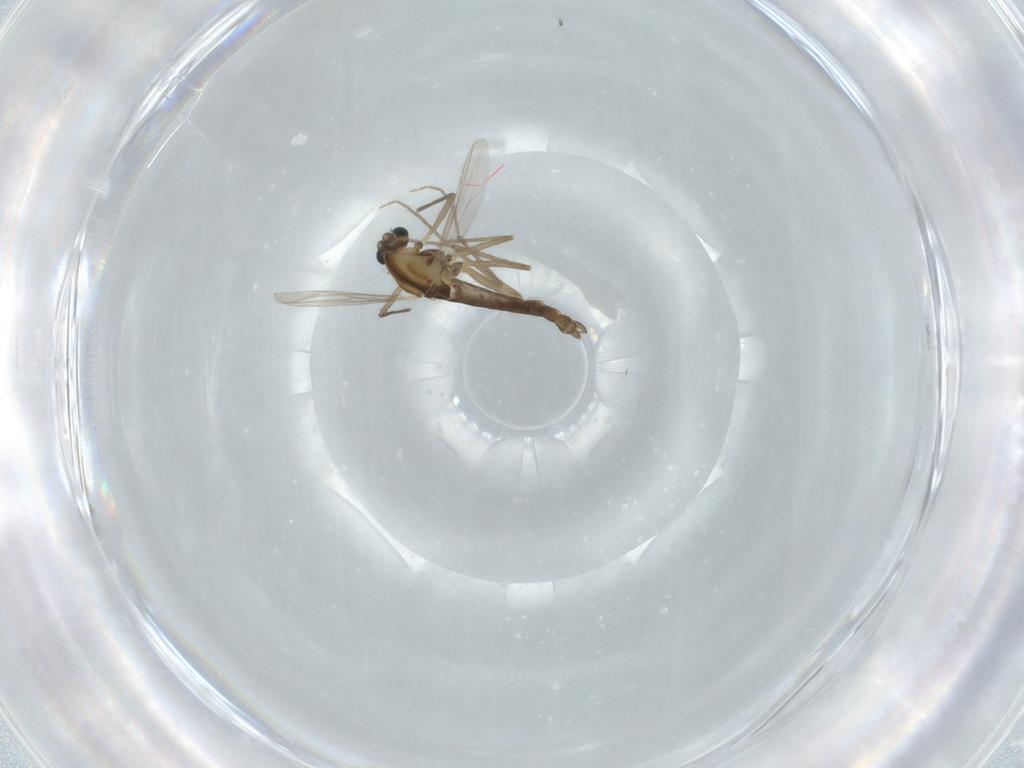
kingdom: Animalia
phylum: Arthropoda
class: Insecta
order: Diptera
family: Chironomidae
